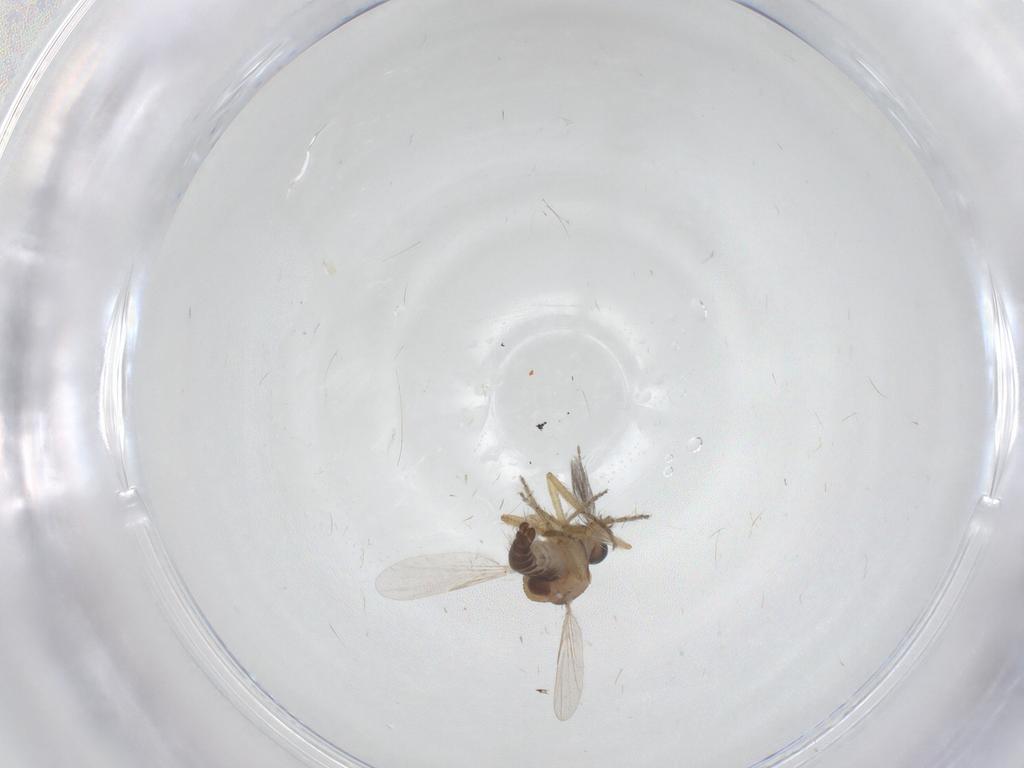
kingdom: Animalia
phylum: Arthropoda
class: Insecta
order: Diptera
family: Ceratopogonidae
